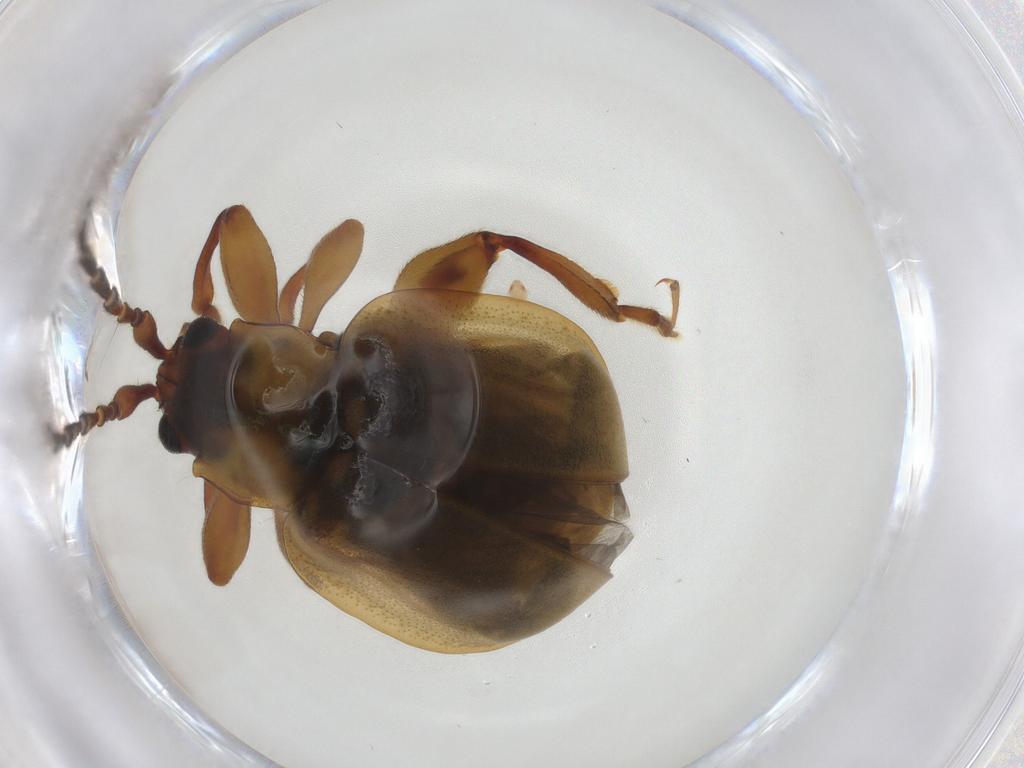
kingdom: Animalia
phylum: Arthropoda
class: Insecta
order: Coleoptera
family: Chrysomelidae
